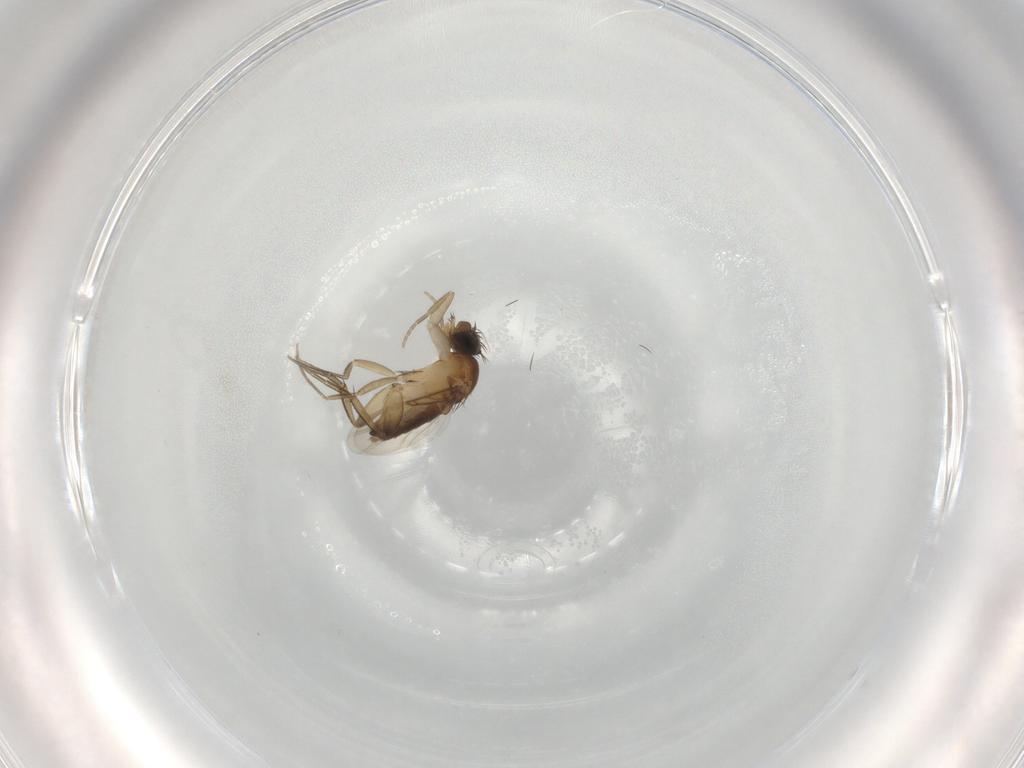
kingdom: Animalia
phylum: Arthropoda
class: Insecta
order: Diptera
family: Phoridae
